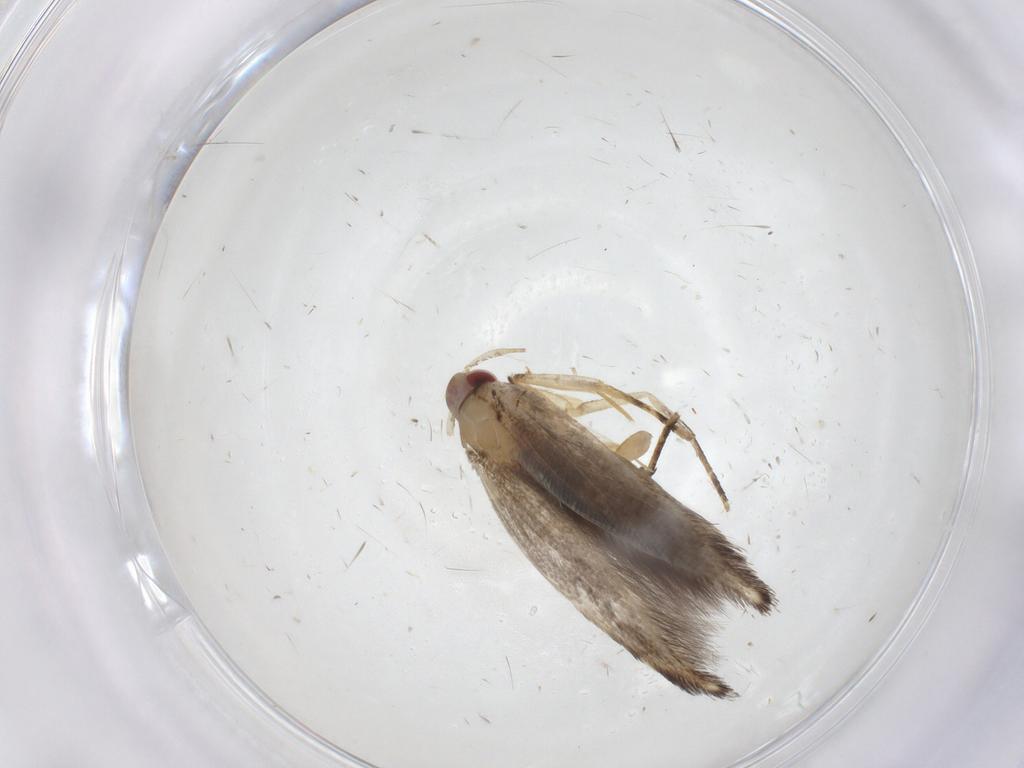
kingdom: Animalia
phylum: Arthropoda
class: Insecta
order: Lepidoptera
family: Cosmopterigidae
